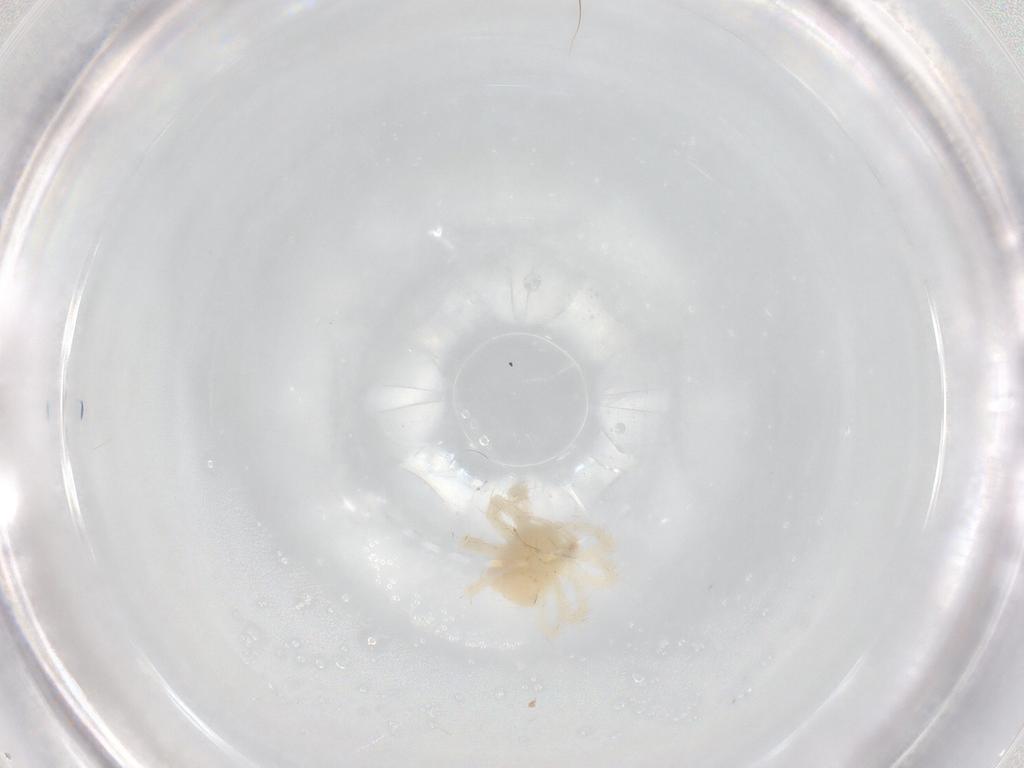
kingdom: Animalia
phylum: Arthropoda
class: Arachnida
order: Trombidiformes
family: Anystidae
